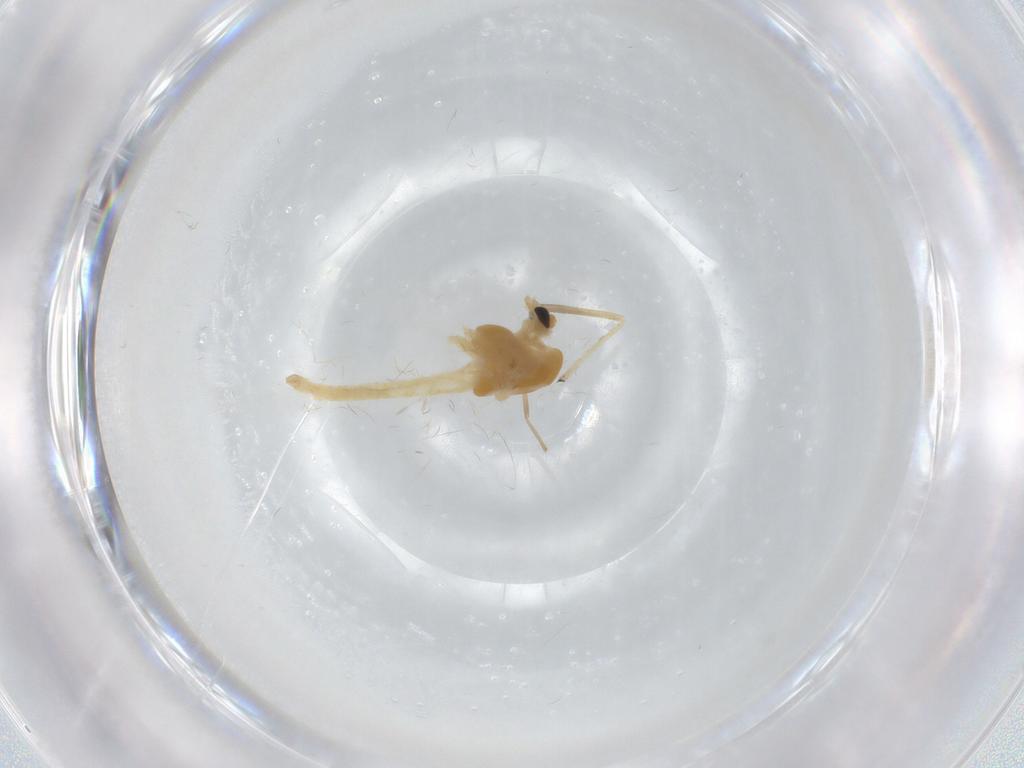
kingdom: Animalia
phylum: Arthropoda
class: Insecta
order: Diptera
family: Chironomidae
